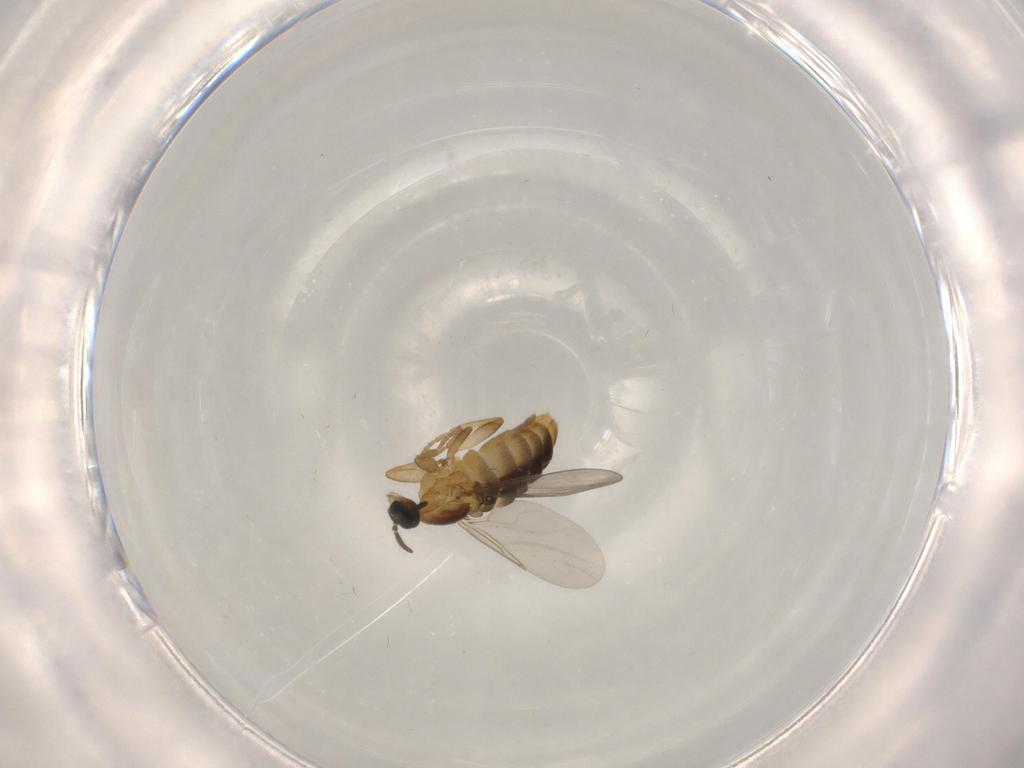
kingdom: Animalia
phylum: Arthropoda
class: Insecta
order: Diptera
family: Scatopsidae
